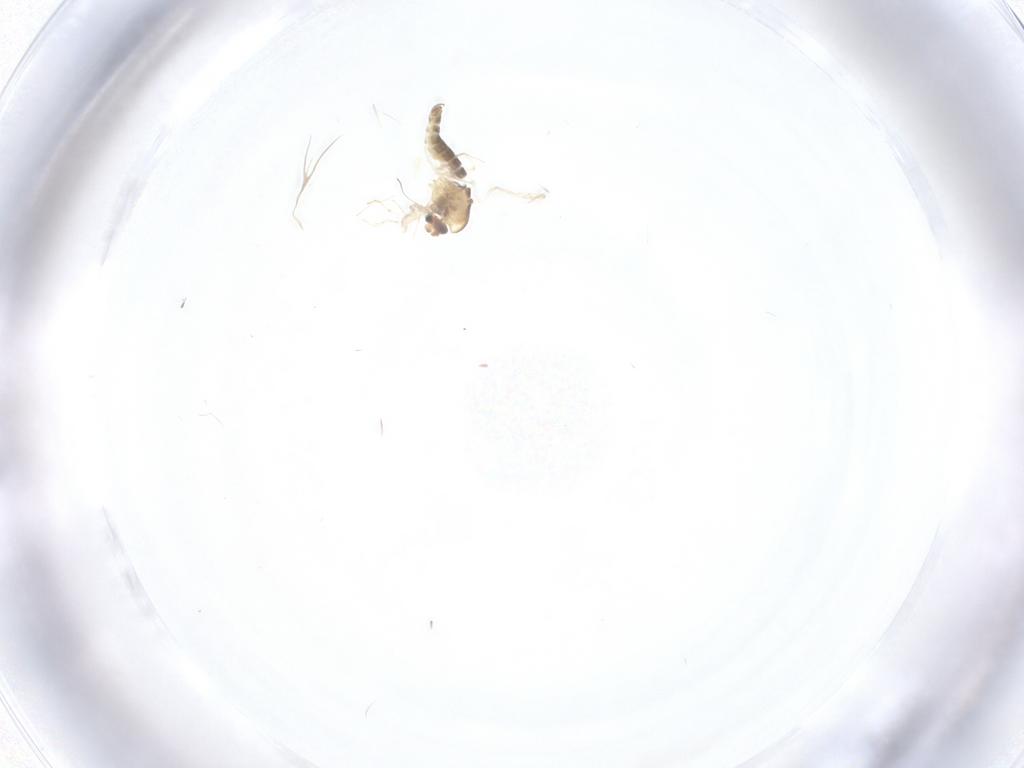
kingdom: Animalia
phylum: Arthropoda
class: Insecta
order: Diptera
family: Chironomidae
